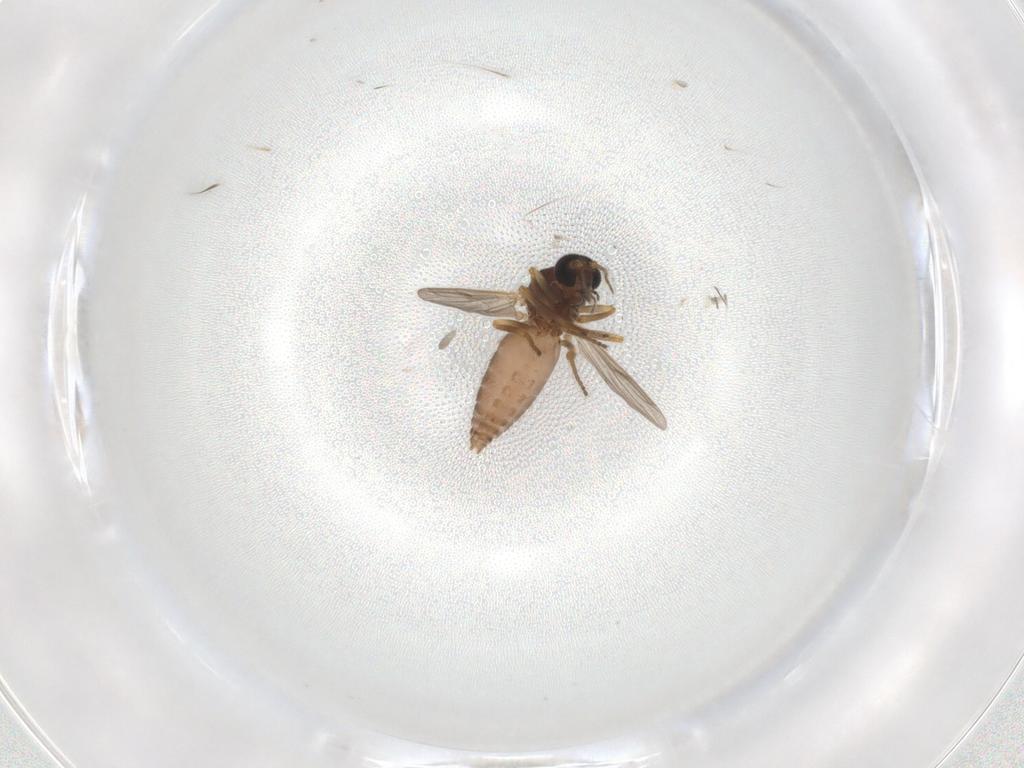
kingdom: Animalia
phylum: Arthropoda
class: Insecta
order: Diptera
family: Ceratopogonidae
